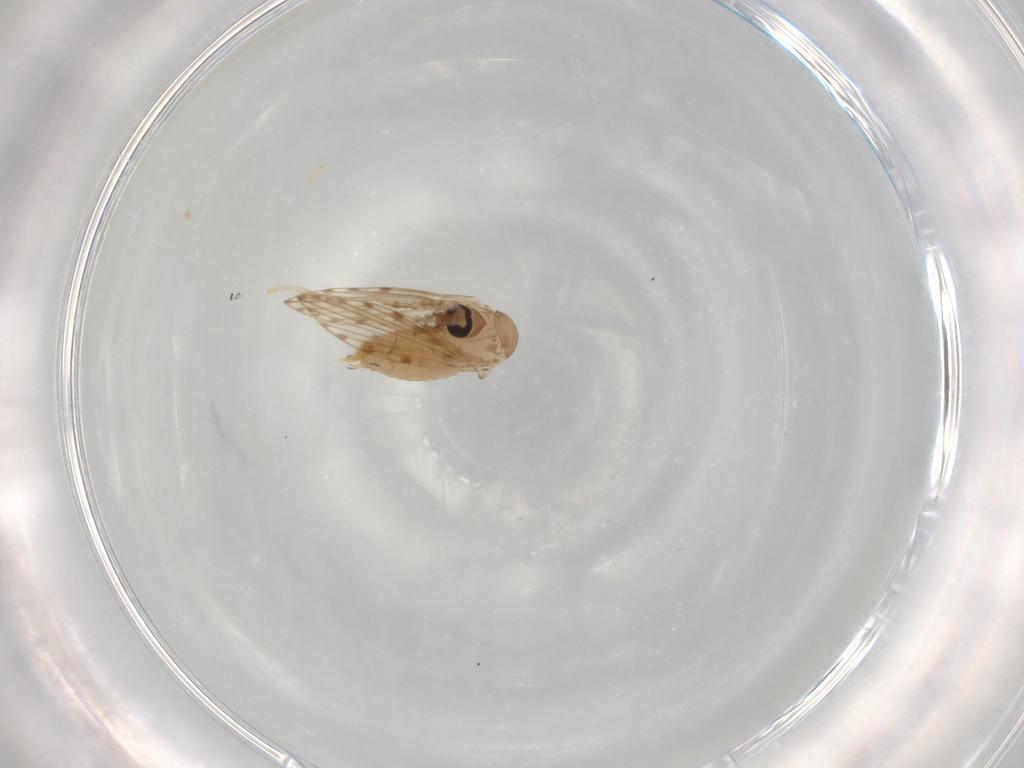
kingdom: Animalia
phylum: Arthropoda
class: Insecta
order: Diptera
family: Psychodidae
